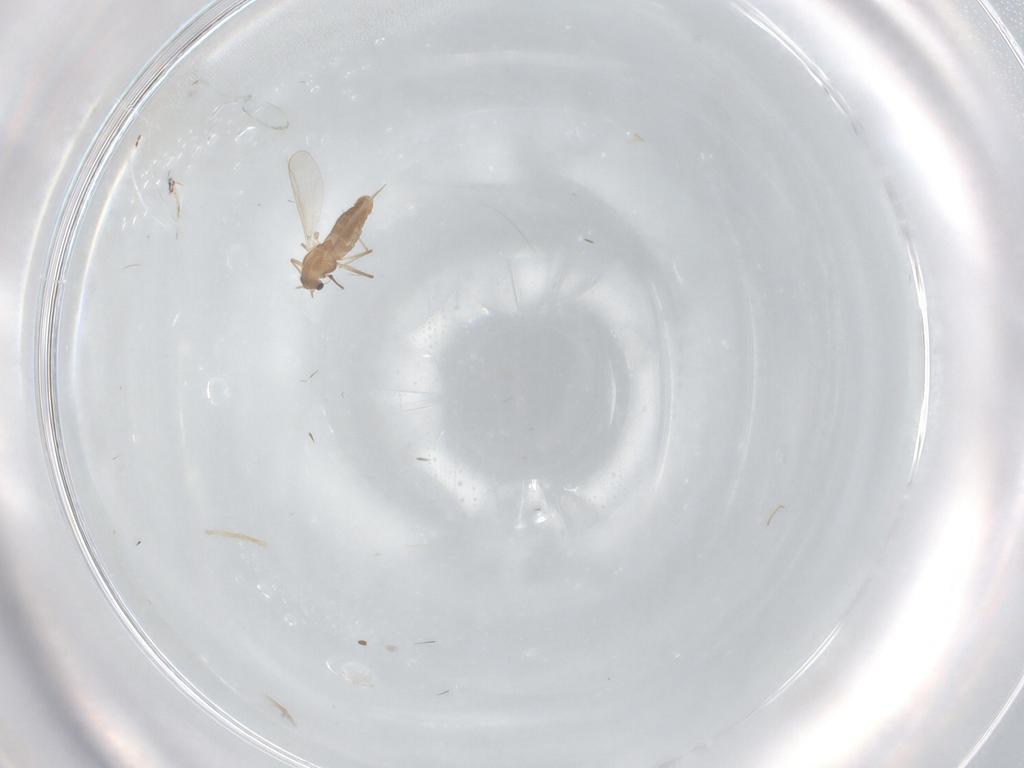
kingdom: Animalia
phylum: Arthropoda
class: Insecta
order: Diptera
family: Chironomidae
